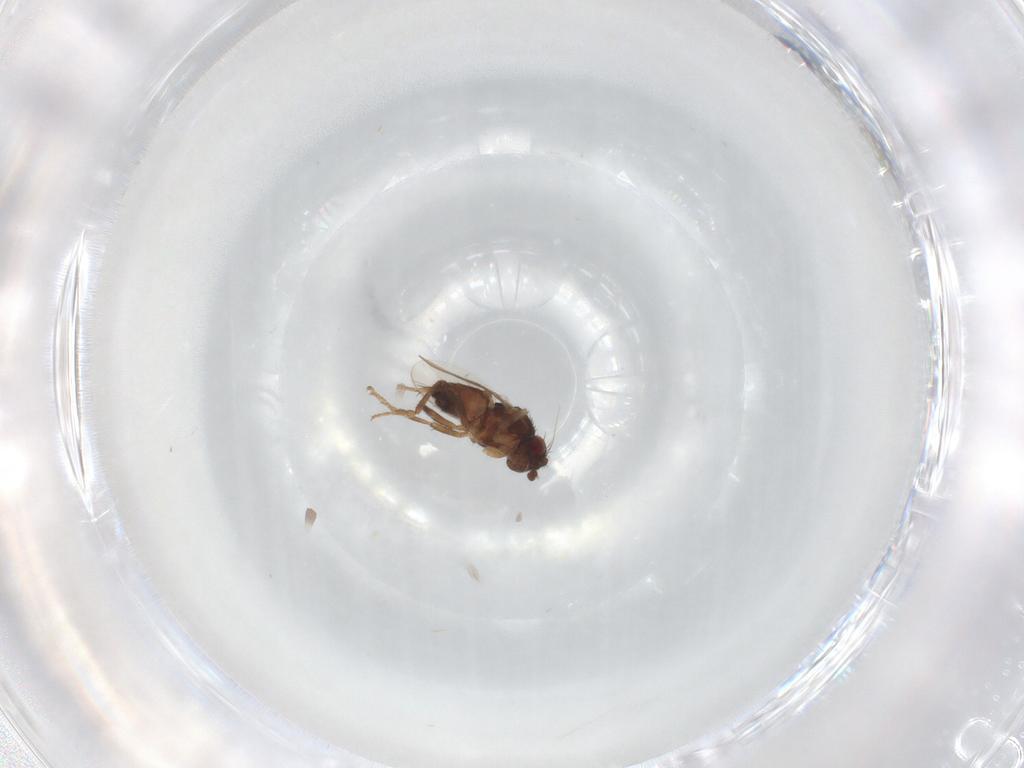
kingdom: Animalia
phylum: Arthropoda
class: Insecta
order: Diptera
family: Sphaeroceridae
